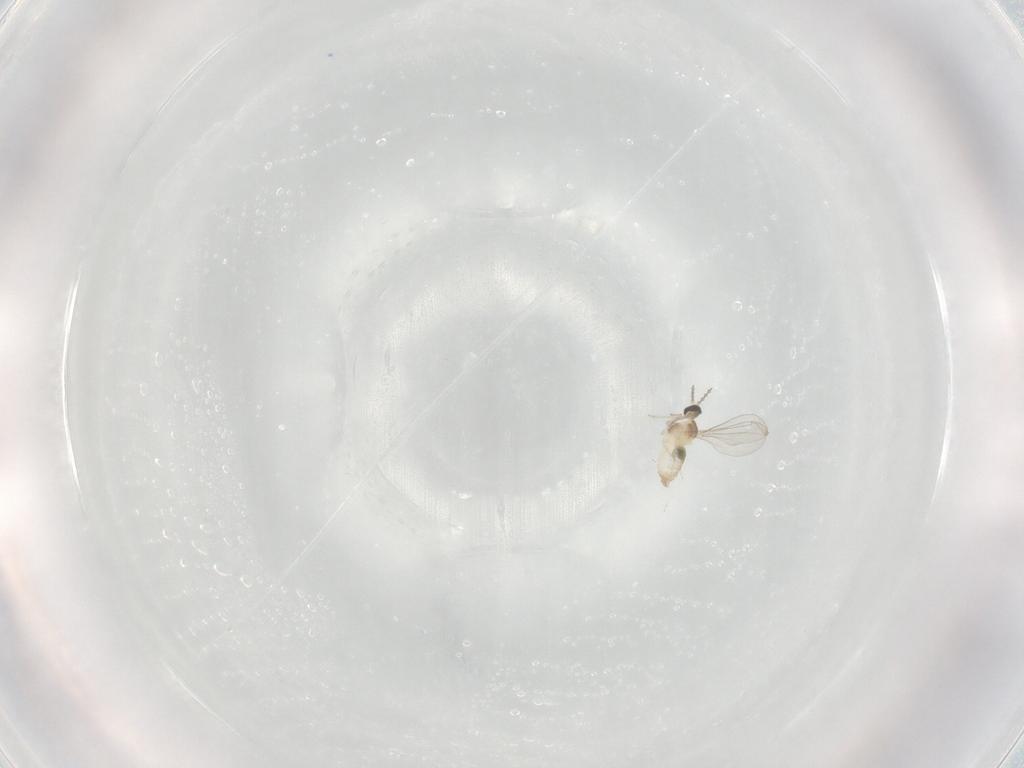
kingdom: Animalia
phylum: Arthropoda
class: Insecta
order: Diptera
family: Cecidomyiidae
